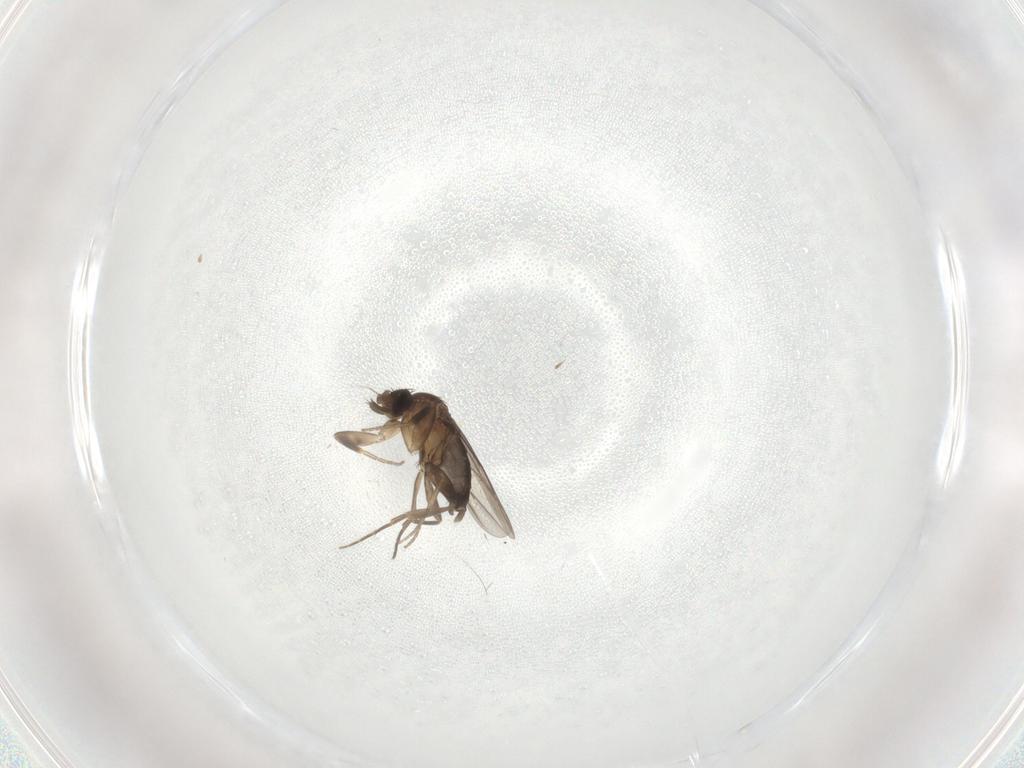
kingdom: Animalia
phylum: Arthropoda
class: Insecta
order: Diptera
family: Phoridae
